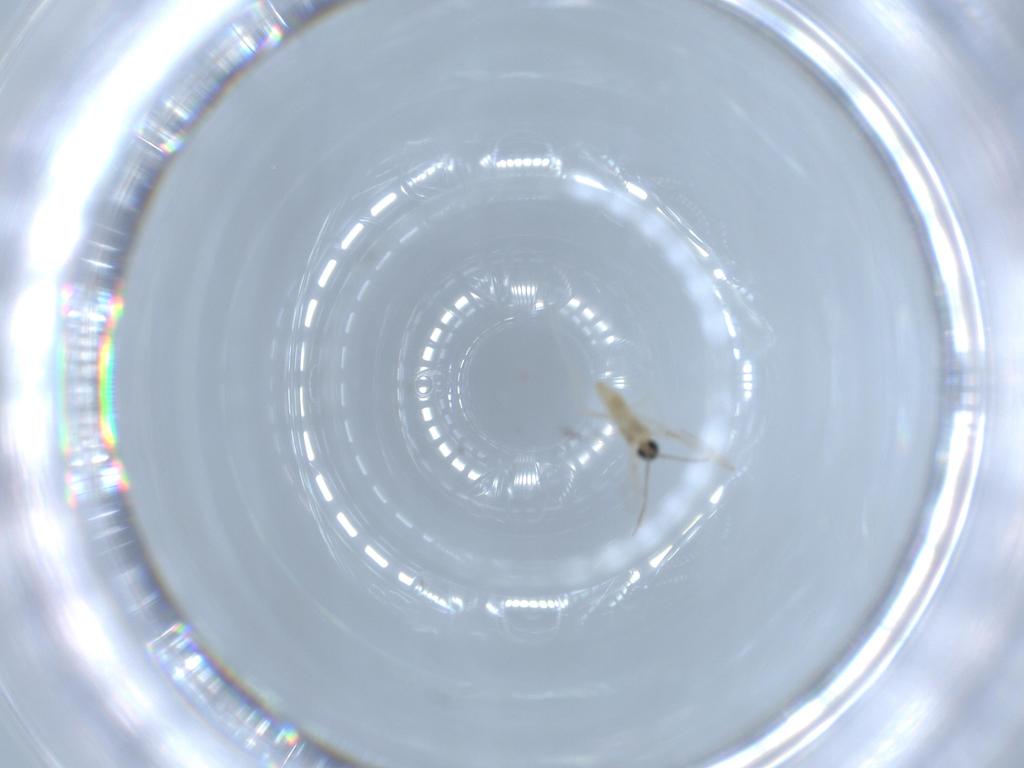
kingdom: Animalia
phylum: Arthropoda
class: Insecta
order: Diptera
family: Cecidomyiidae
